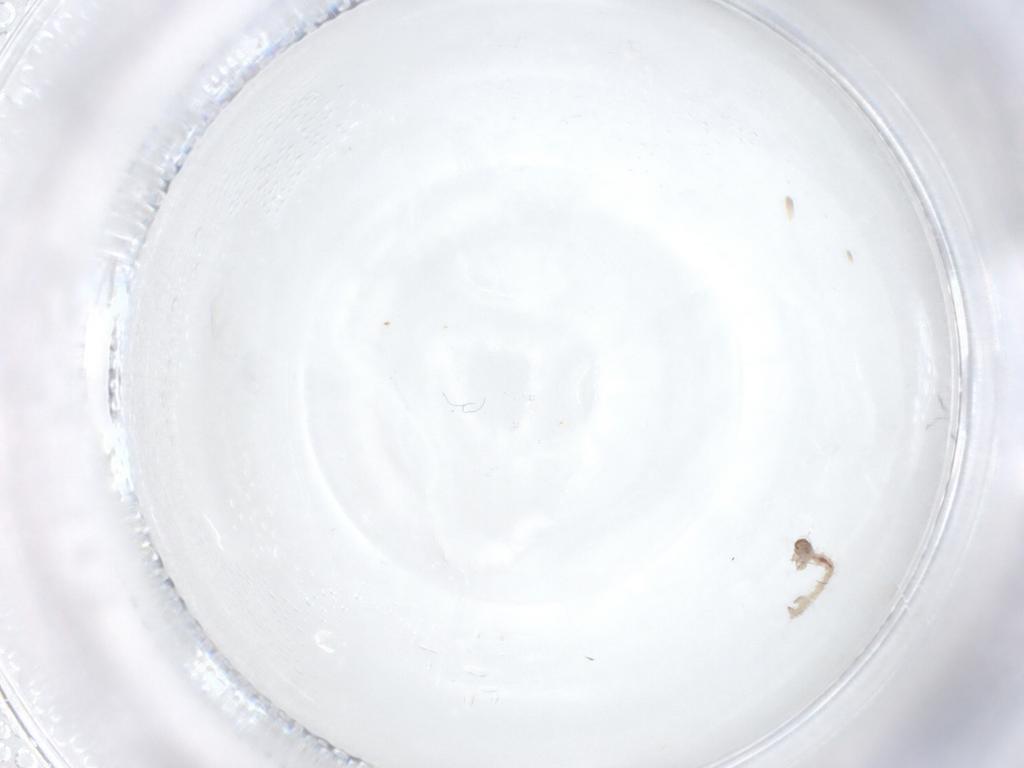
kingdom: Animalia
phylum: Arthropoda
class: Insecta
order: Lepidoptera
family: Erebidae
